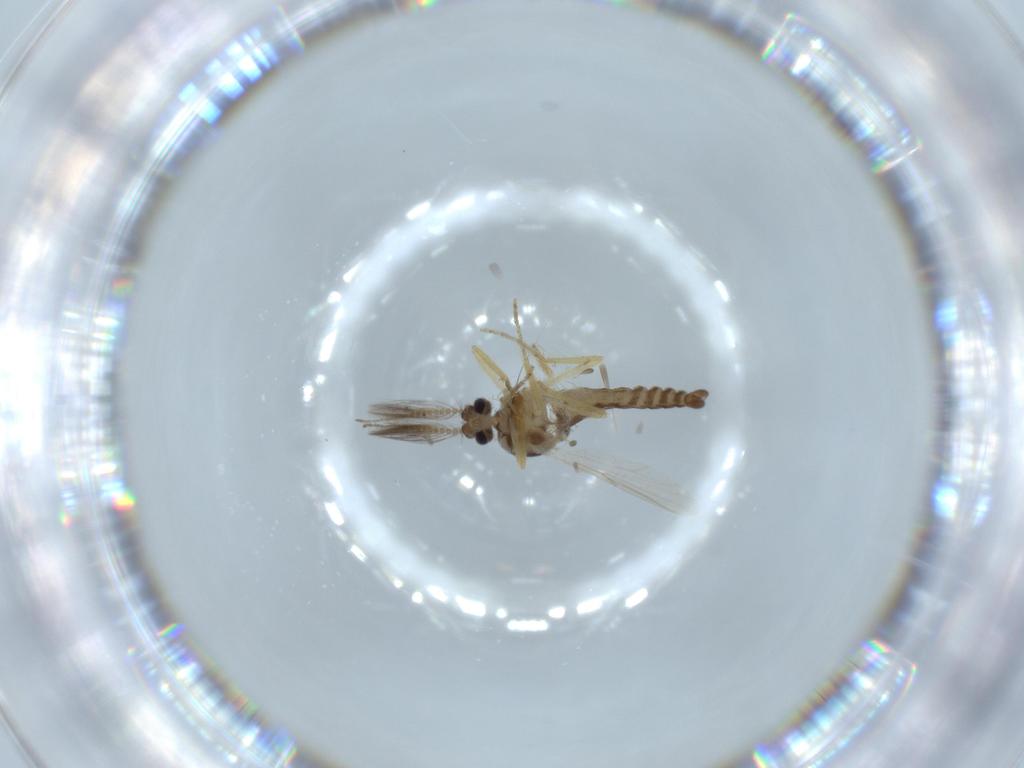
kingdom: Animalia
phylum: Arthropoda
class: Insecta
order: Diptera
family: Ceratopogonidae
